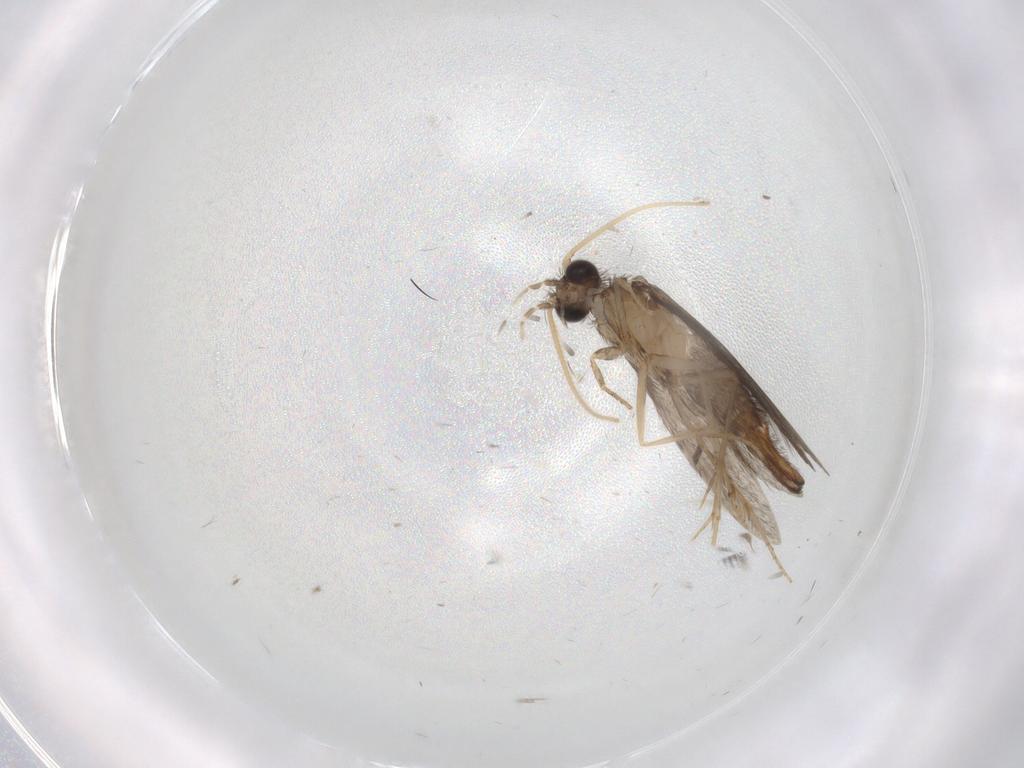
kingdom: Animalia
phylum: Arthropoda
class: Insecta
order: Trichoptera
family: Hydroptilidae
